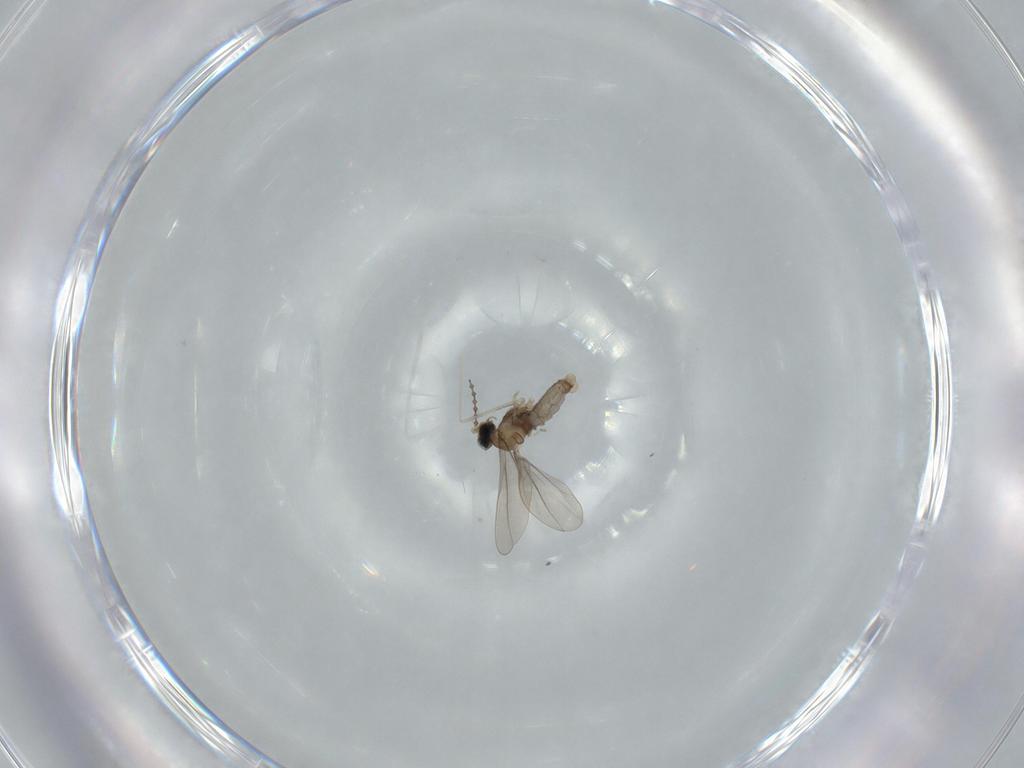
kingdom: Animalia
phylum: Arthropoda
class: Insecta
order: Diptera
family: Cecidomyiidae
